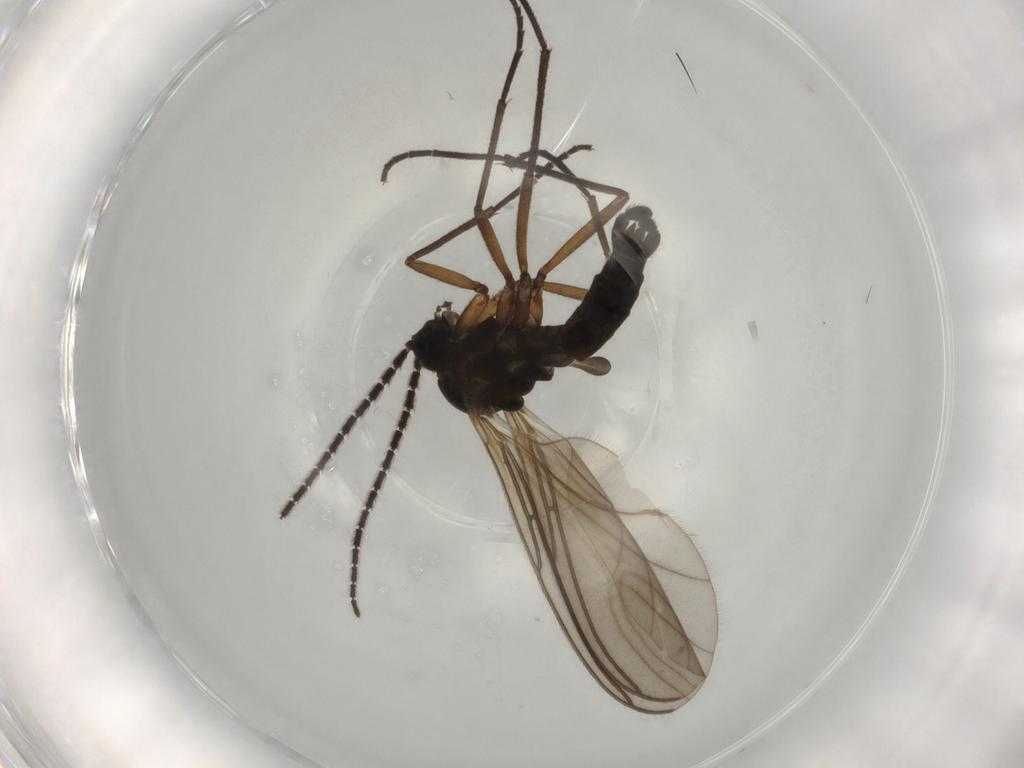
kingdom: Animalia
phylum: Arthropoda
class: Insecta
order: Diptera
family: Sciaridae
